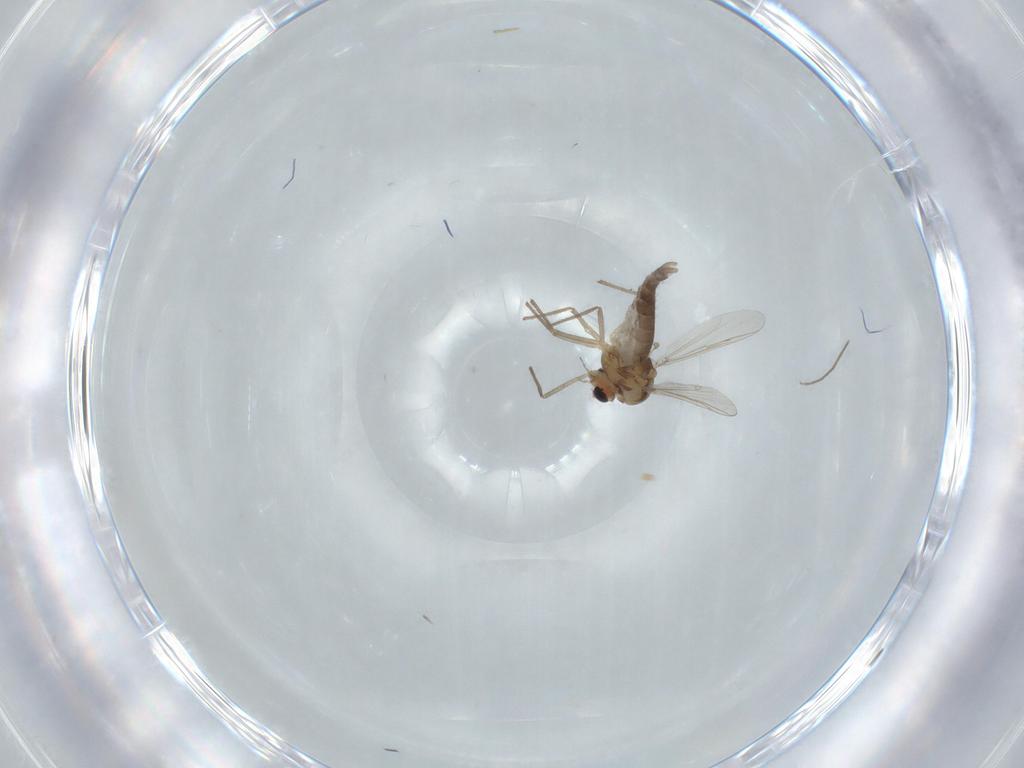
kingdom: Animalia
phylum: Arthropoda
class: Insecta
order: Diptera
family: Chironomidae
